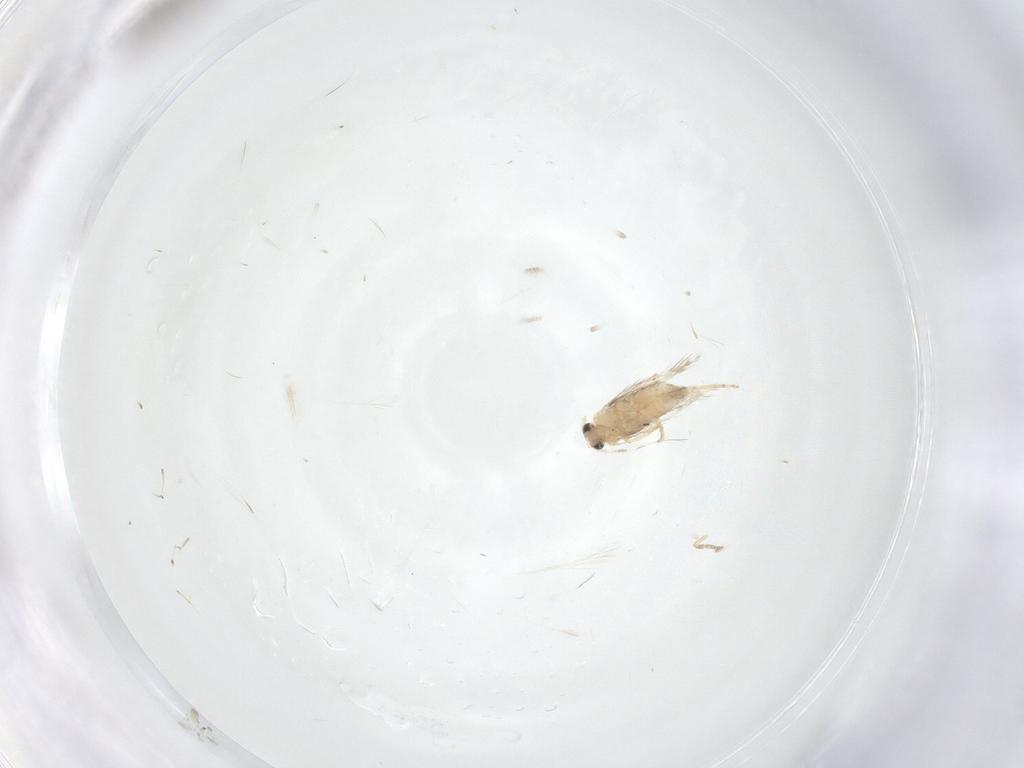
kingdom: Animalia
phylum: Arthropoda
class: Insecta
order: Lepidoptera
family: Nepticulidae
